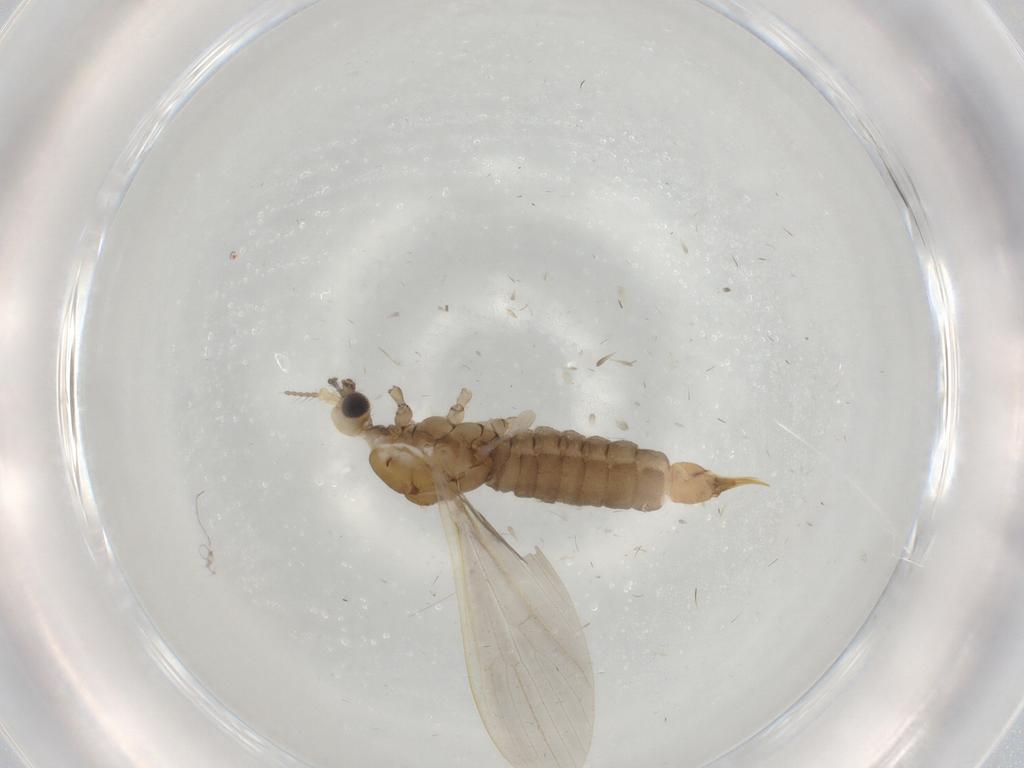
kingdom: Animalia
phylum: Arthropoda
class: Insecta
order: Diptera
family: Limoniidae
